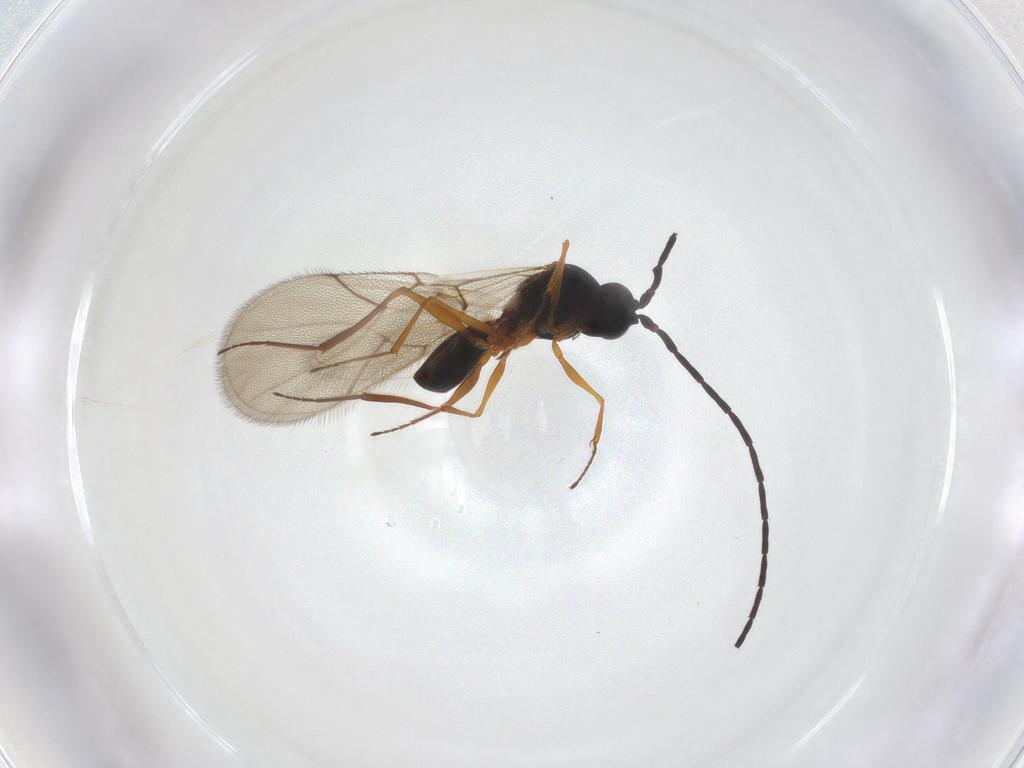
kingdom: Animalia
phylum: Arthropoda
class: Insecta
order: Hymenoptera
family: Figitidae
